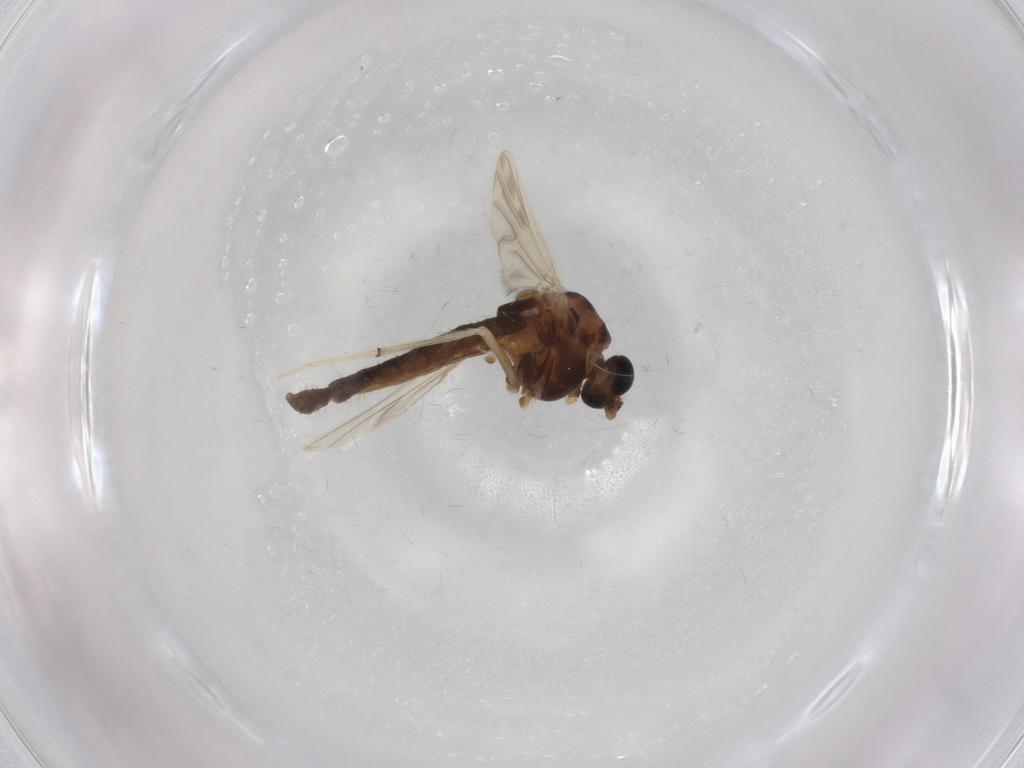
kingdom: Animalia
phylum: Arthropoda
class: Insecta
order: Diptera
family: Chironomidae
